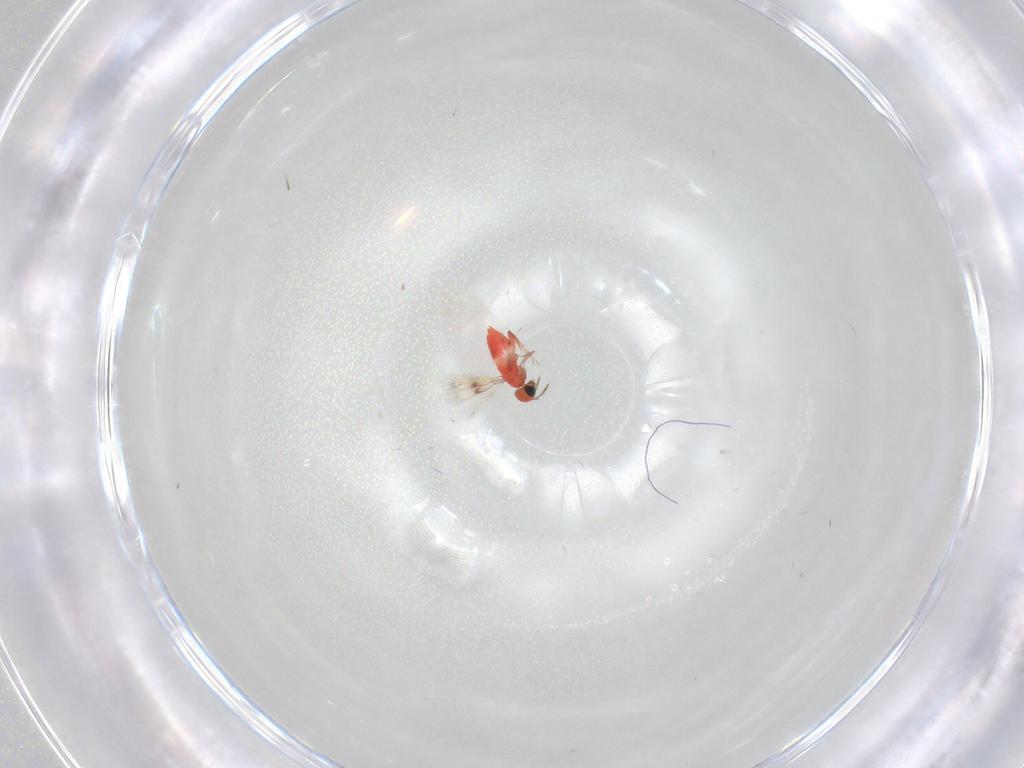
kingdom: Animalia
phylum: Arthropoda
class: Insecta
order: Hymenoptera
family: Trichogrammatidae
